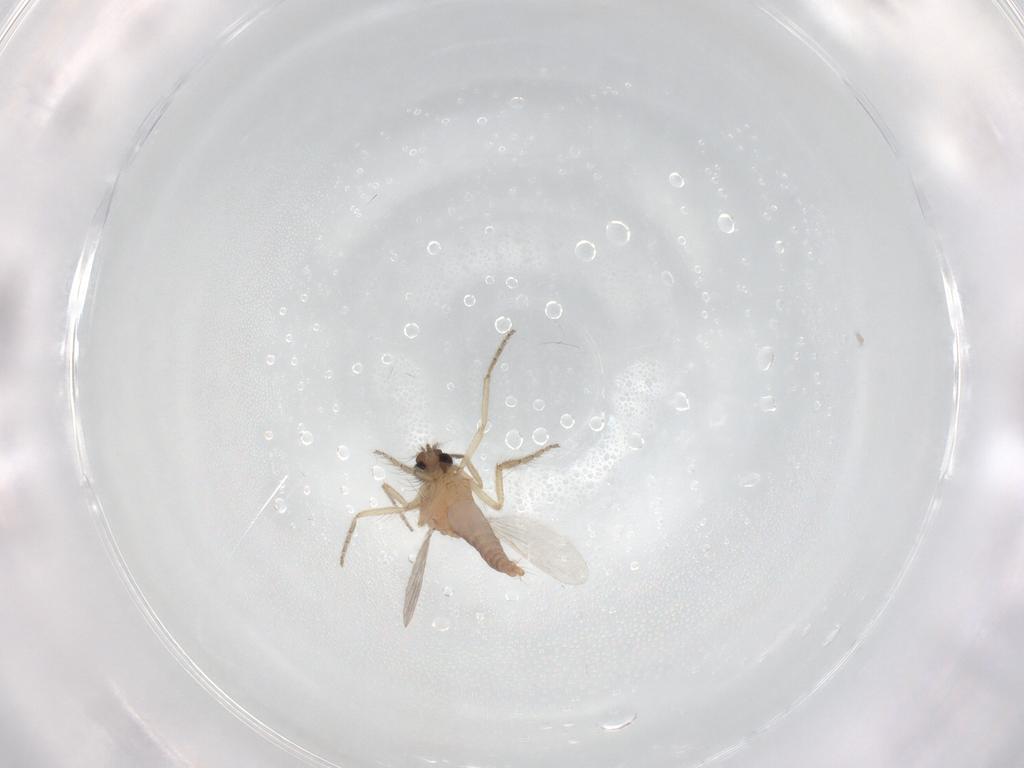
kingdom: Animalia
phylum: Arthropoda
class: Insecta
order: Diptera
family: Ceratopogonidae
